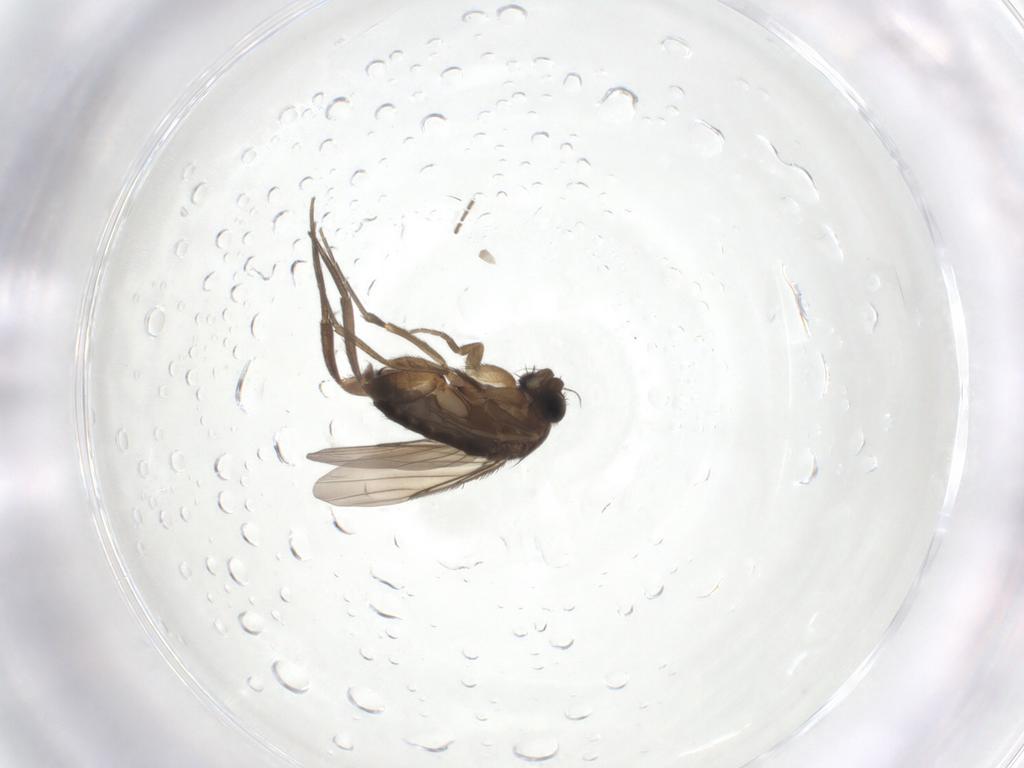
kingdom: Animalia
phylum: Arthropoda
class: Insecta
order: Diptera
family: Phoridae
